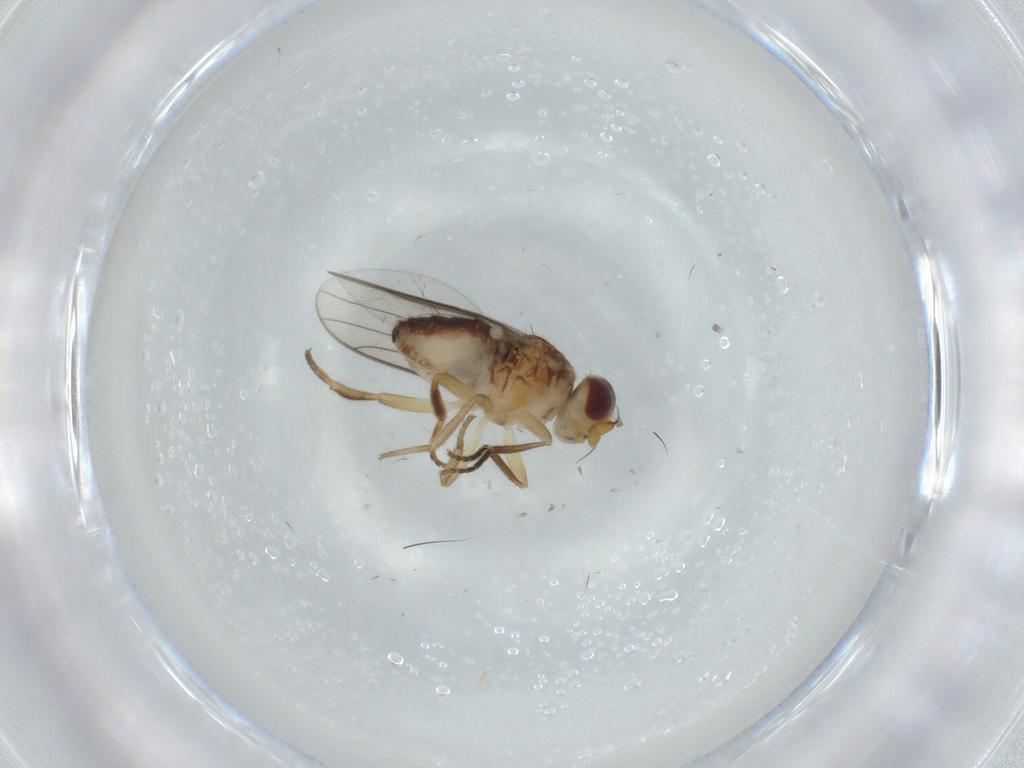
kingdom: Animalia
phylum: Arthropoda
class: Insecta
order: Diptera
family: Chloropidae
